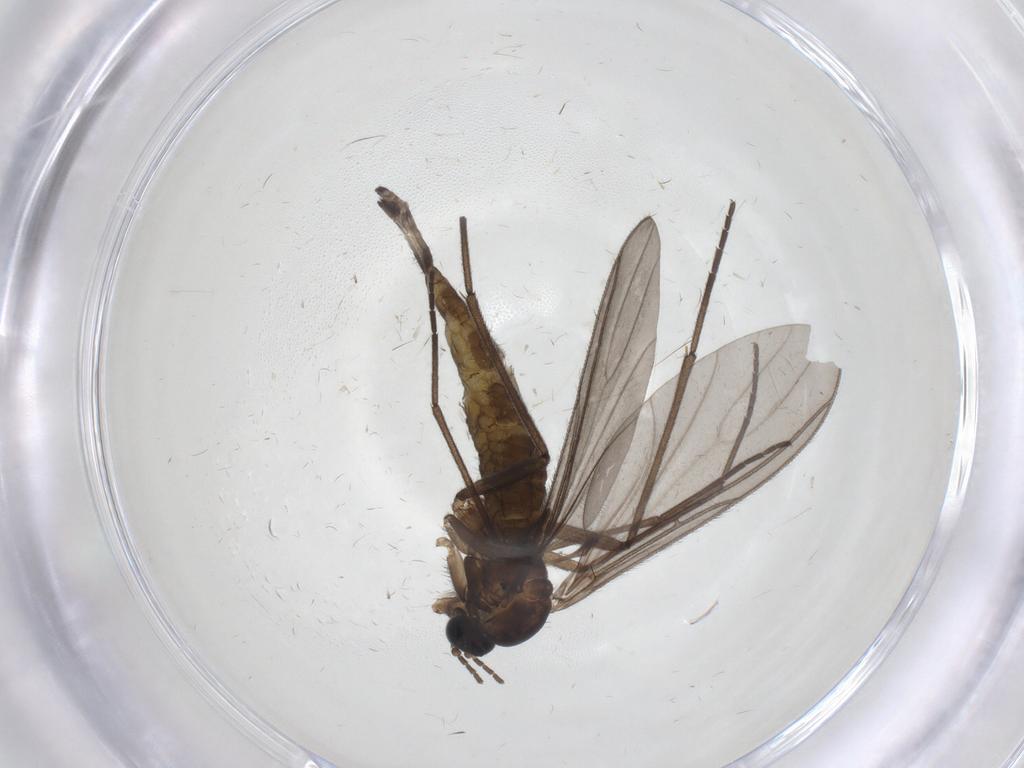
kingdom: Animalia
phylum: Arthropoda
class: Insecta
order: Diptera
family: Sciaridae
